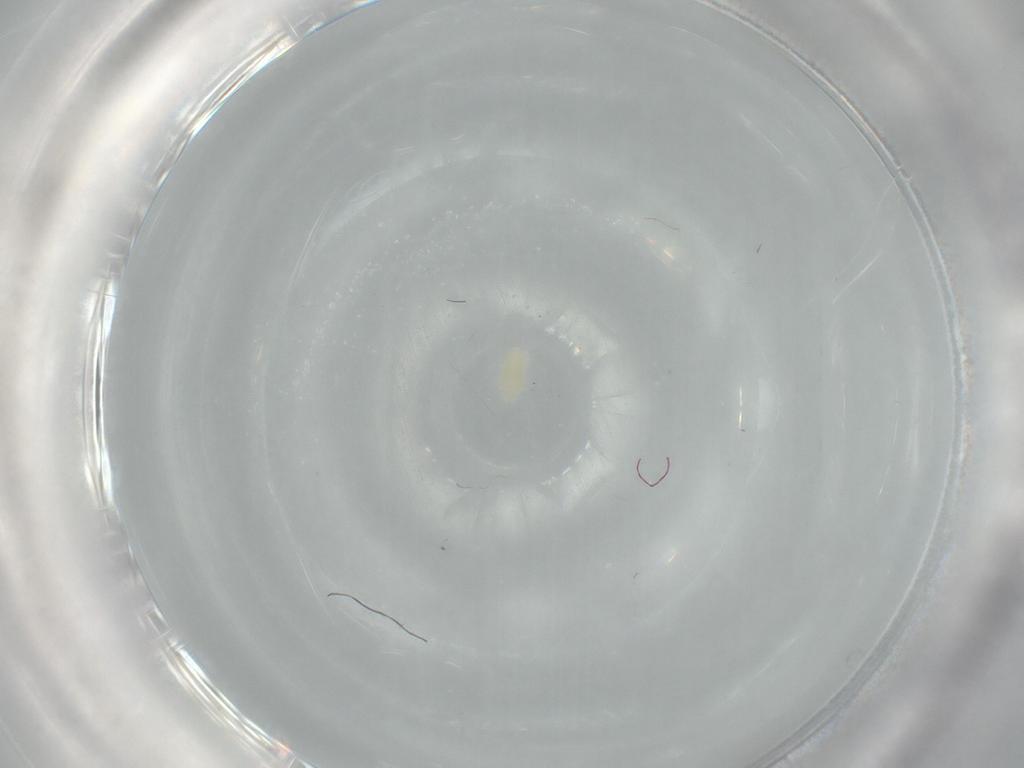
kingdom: Animalia
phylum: Arthropoda
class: Arachnida
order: Trombidiformes
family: Eupodidae
